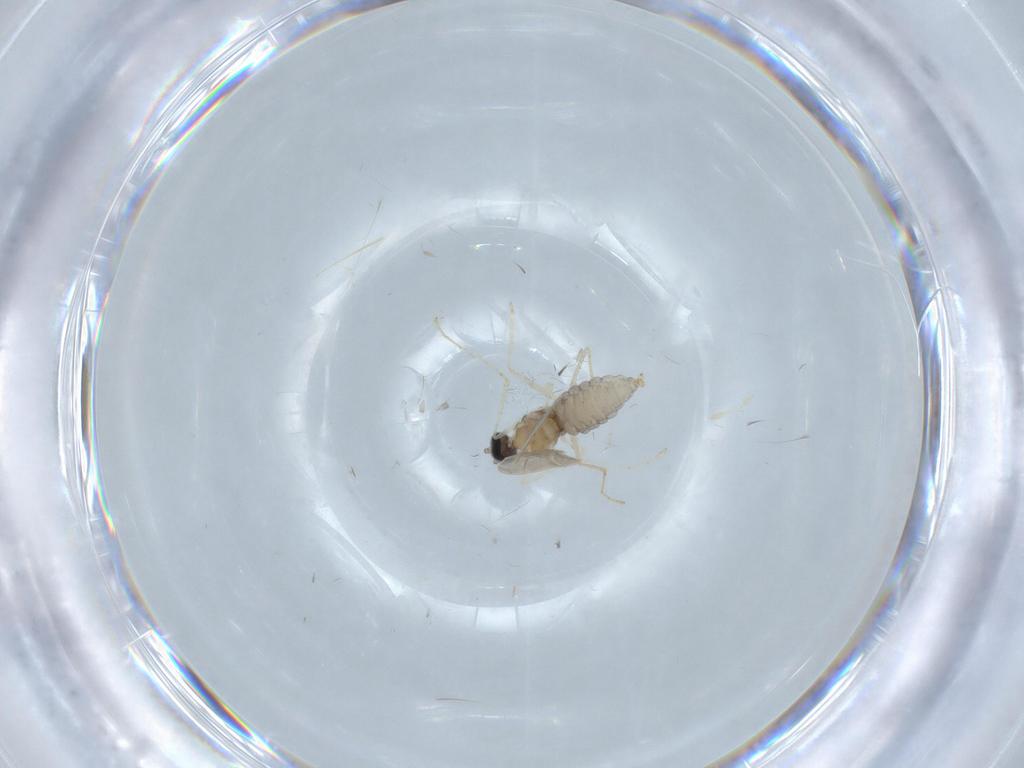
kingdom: Animalia
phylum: Arthropoda
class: Insecta
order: Diptera
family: Cecidomyiidae
